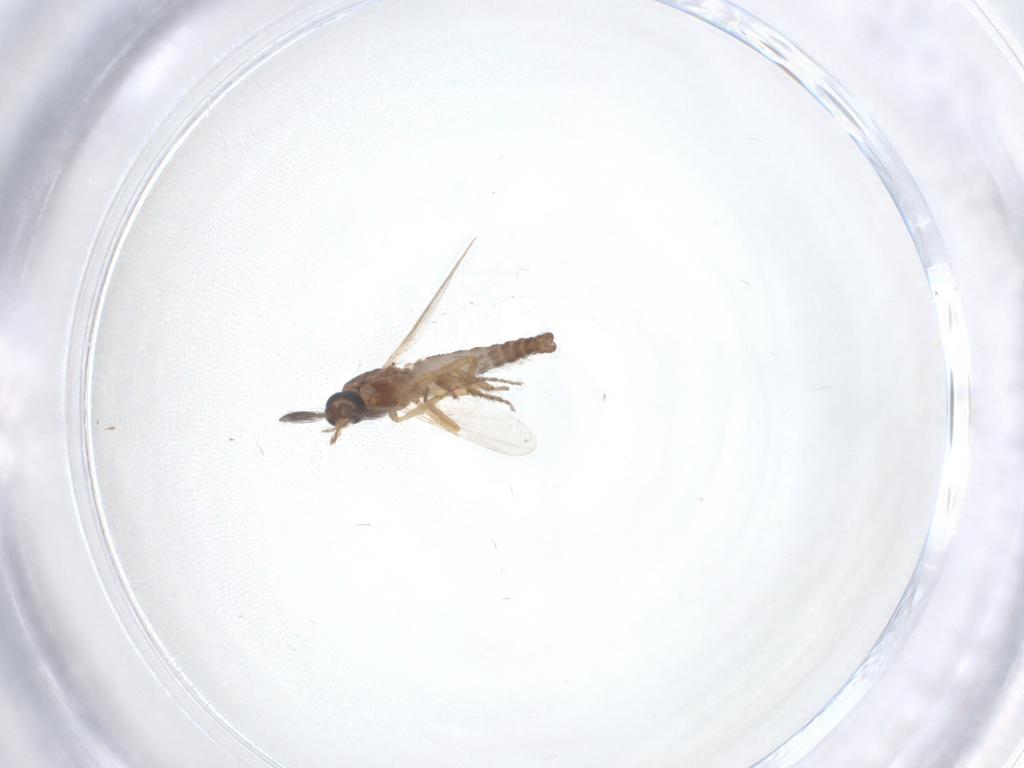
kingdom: Animalia
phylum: Arthropoda
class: Insecta
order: Diptera
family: Ceratopogonidae
